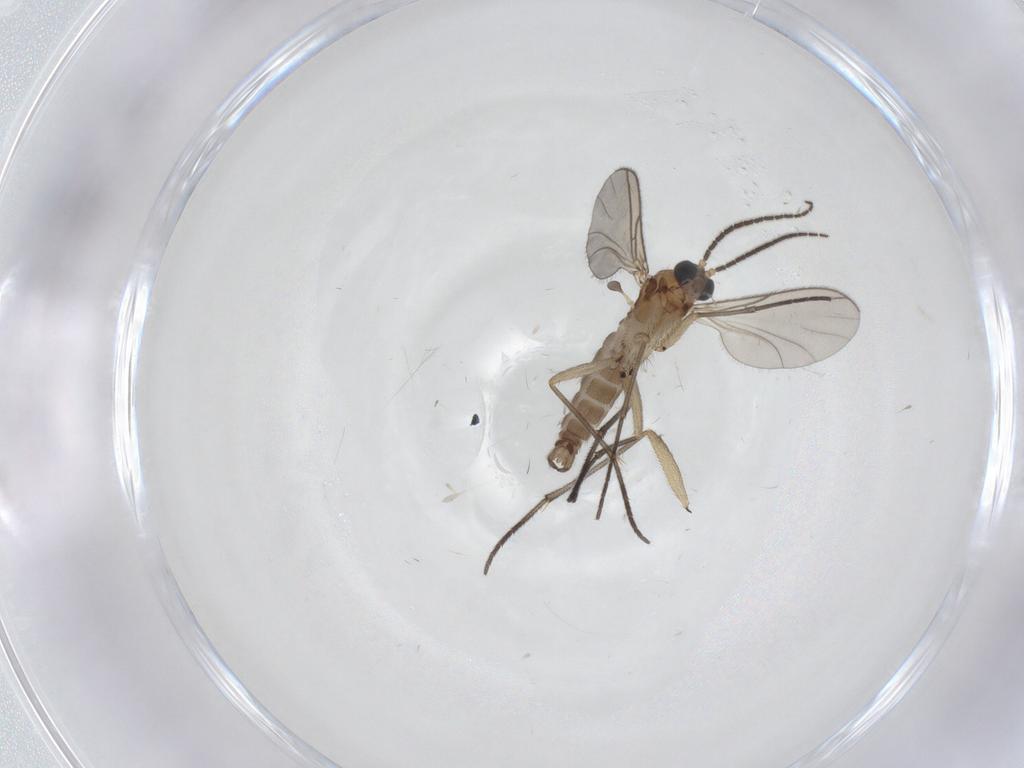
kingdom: Animalia
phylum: Arthropoda
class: Insecta
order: Diptera
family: Sciaridae
